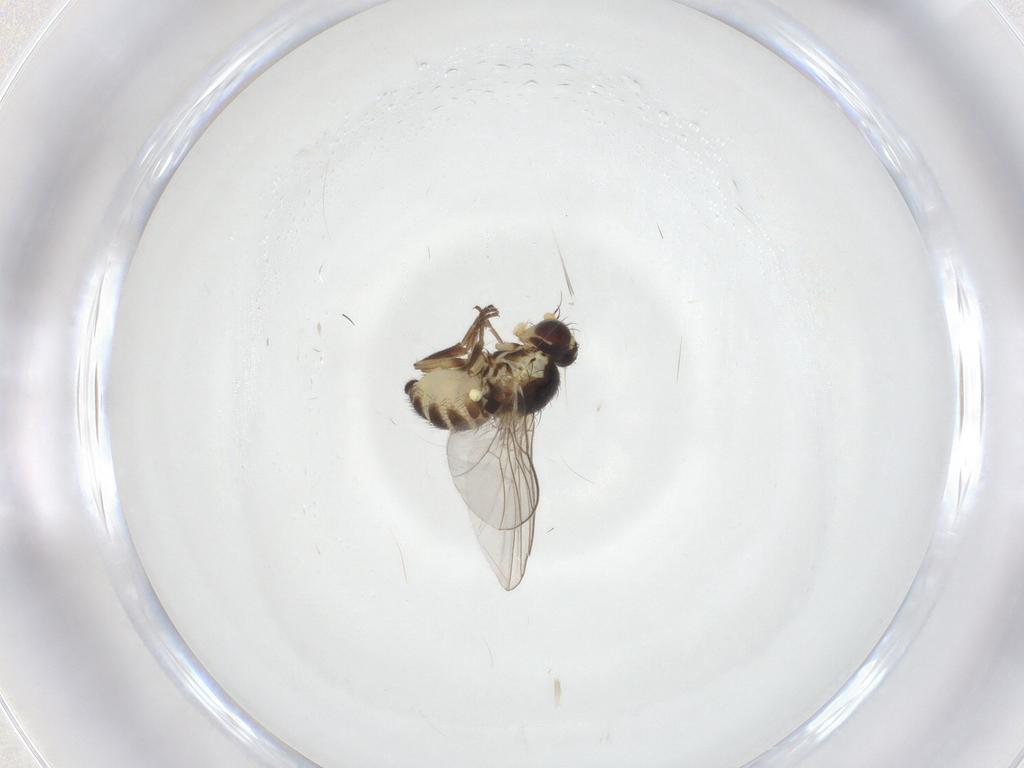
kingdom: Animalia
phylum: Arthropoda
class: Insecta
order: Diptera
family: Agromyzidae
